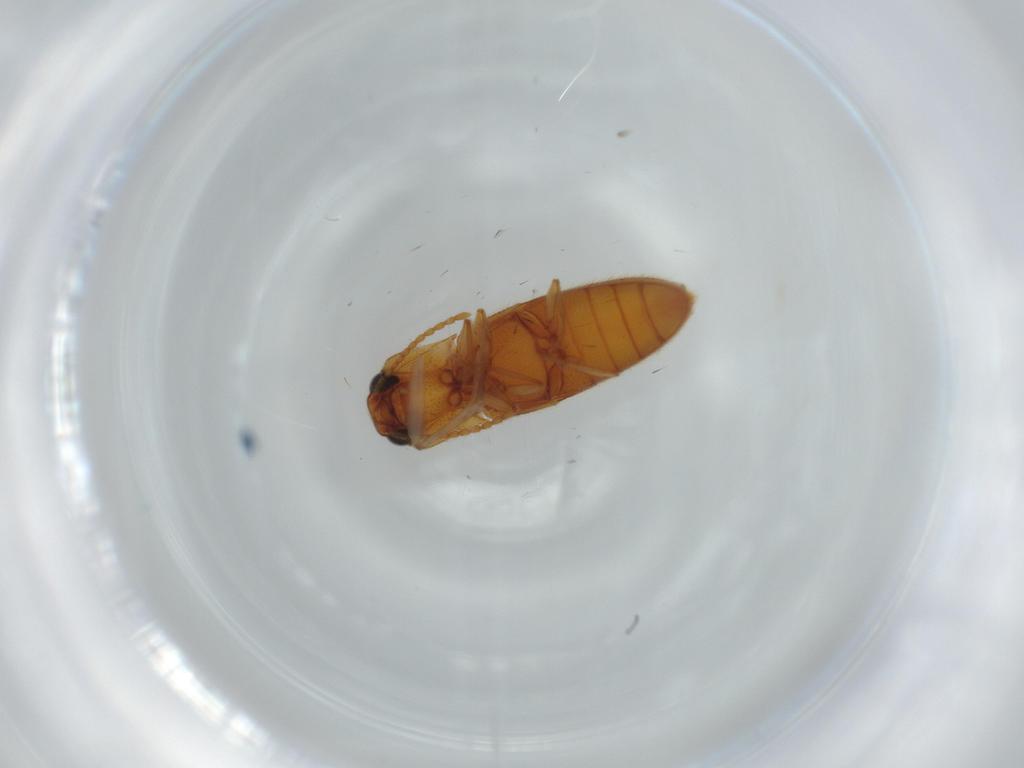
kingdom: Animalia
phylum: Arthropoda
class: Insecta
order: Coleoptera
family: Elateridae
